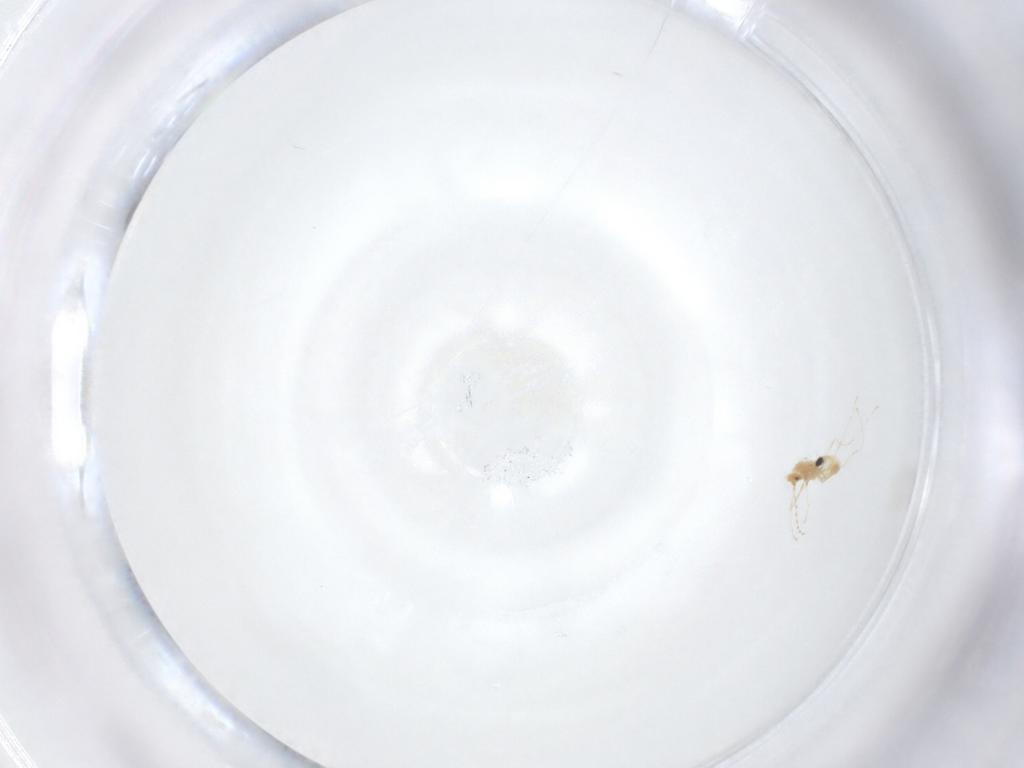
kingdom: Animalia
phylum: Arthropoda
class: Insecta
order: Diptera
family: Cecidomyiidae
